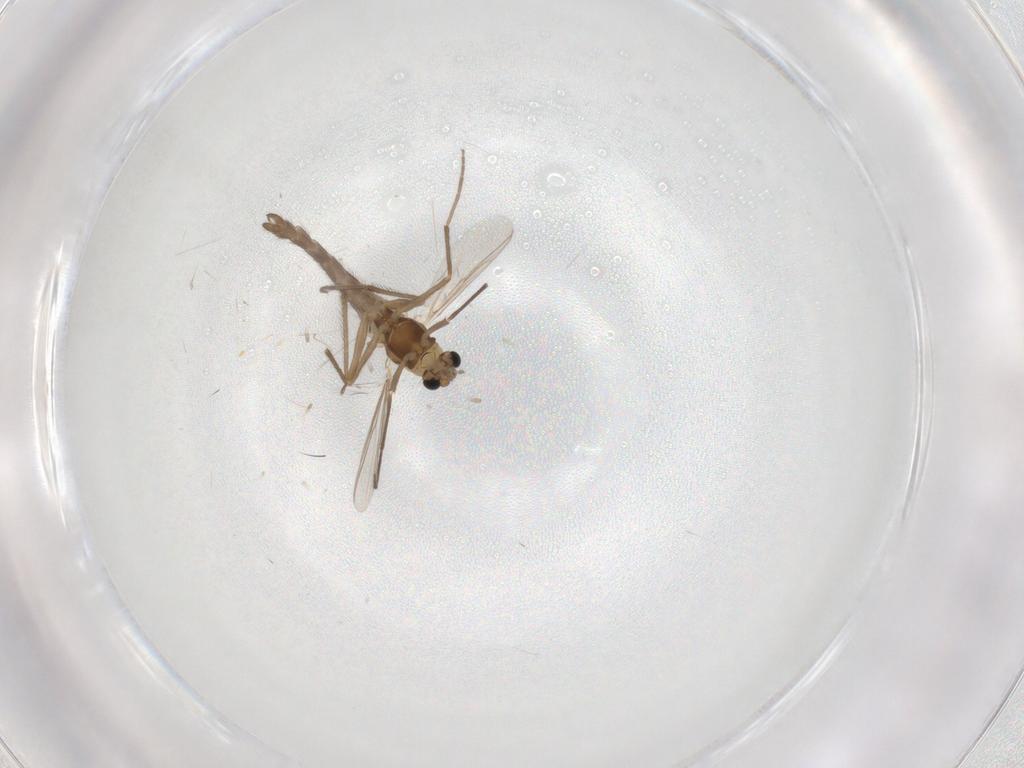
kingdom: Animalia
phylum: Arthropoda
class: Insecta
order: Diptera
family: Chironomidae
